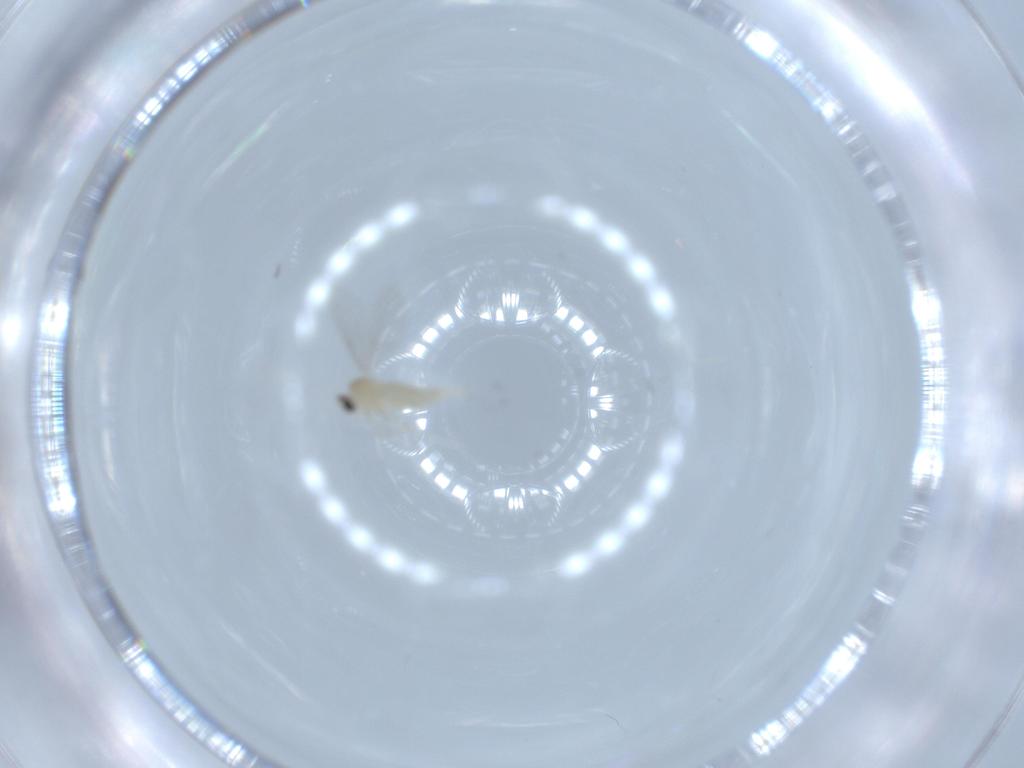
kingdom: Animalia
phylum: Arthropoda
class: Insecta
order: Diptera
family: Cecidomyiidae
